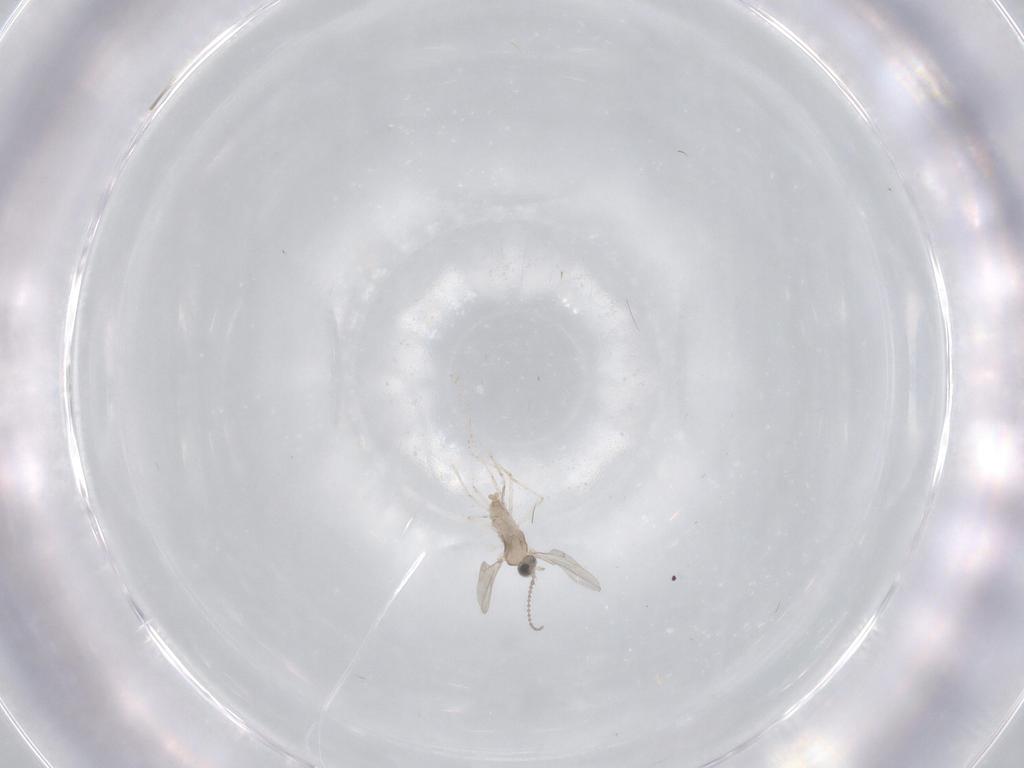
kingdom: Animalia
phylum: Arthropoda
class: Insecta
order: Diptera
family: Cecidomyiidae
